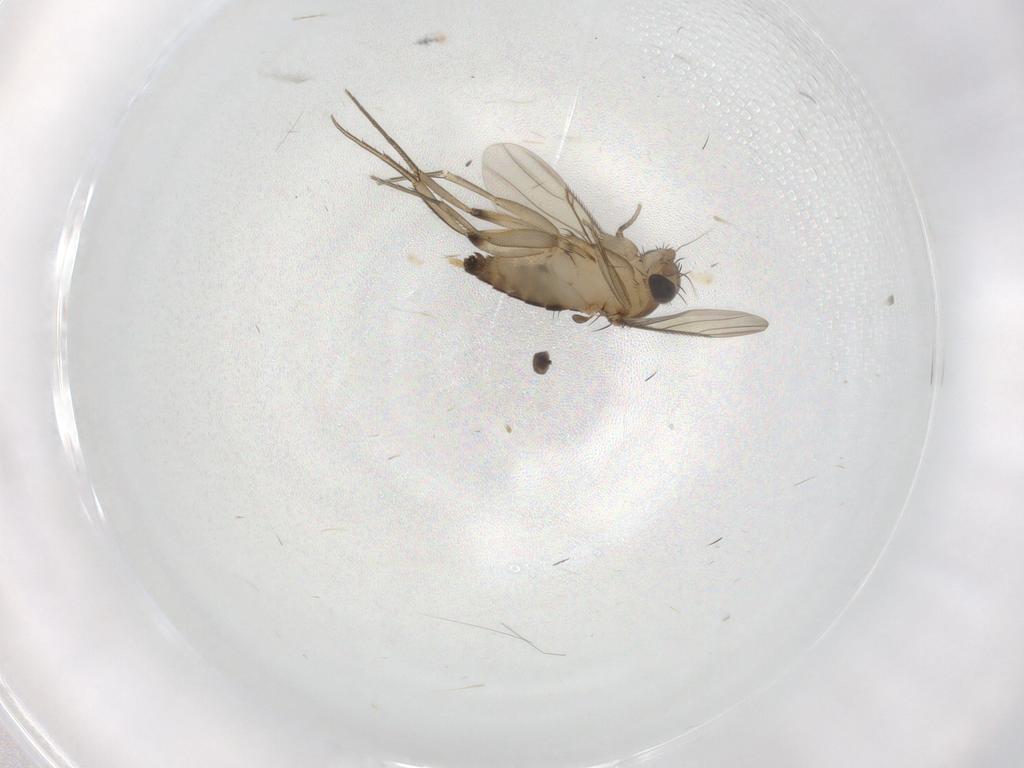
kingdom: Animalia
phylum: Arthropoda
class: Insecta
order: Diptera
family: Phoridae
